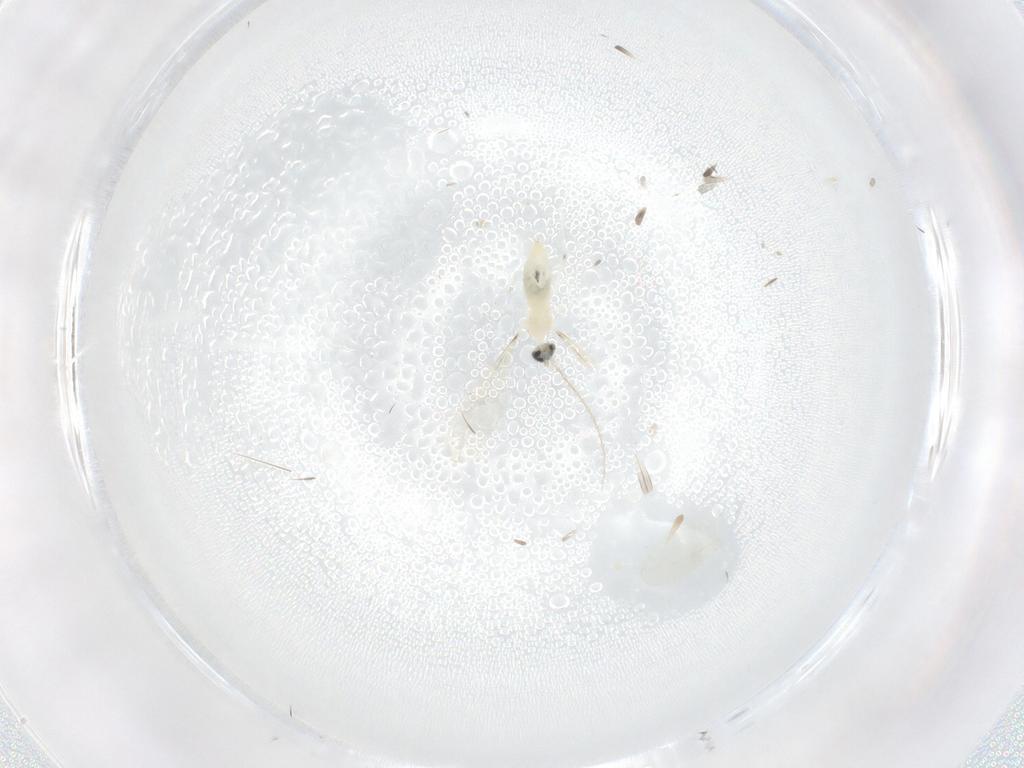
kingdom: Animalia
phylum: Arthropoda
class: Insecta
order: Diptera
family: Cecidomyiidae
